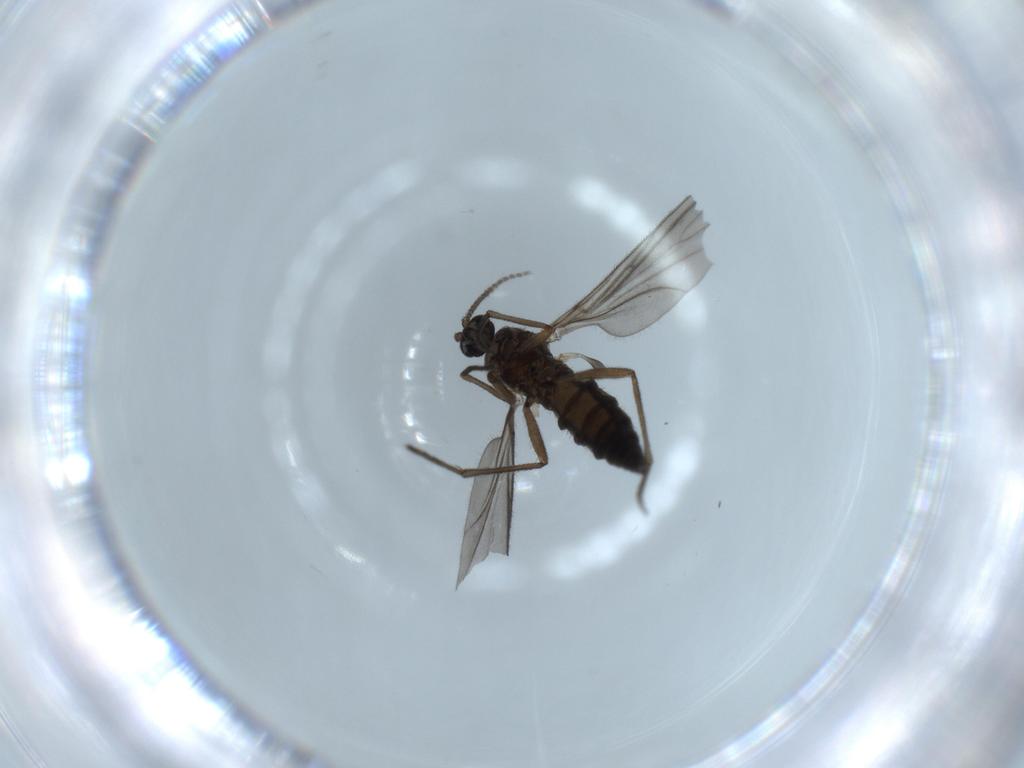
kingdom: Animalia
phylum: Arthropoda
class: Insecta
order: Diptera
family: Sciaridae
